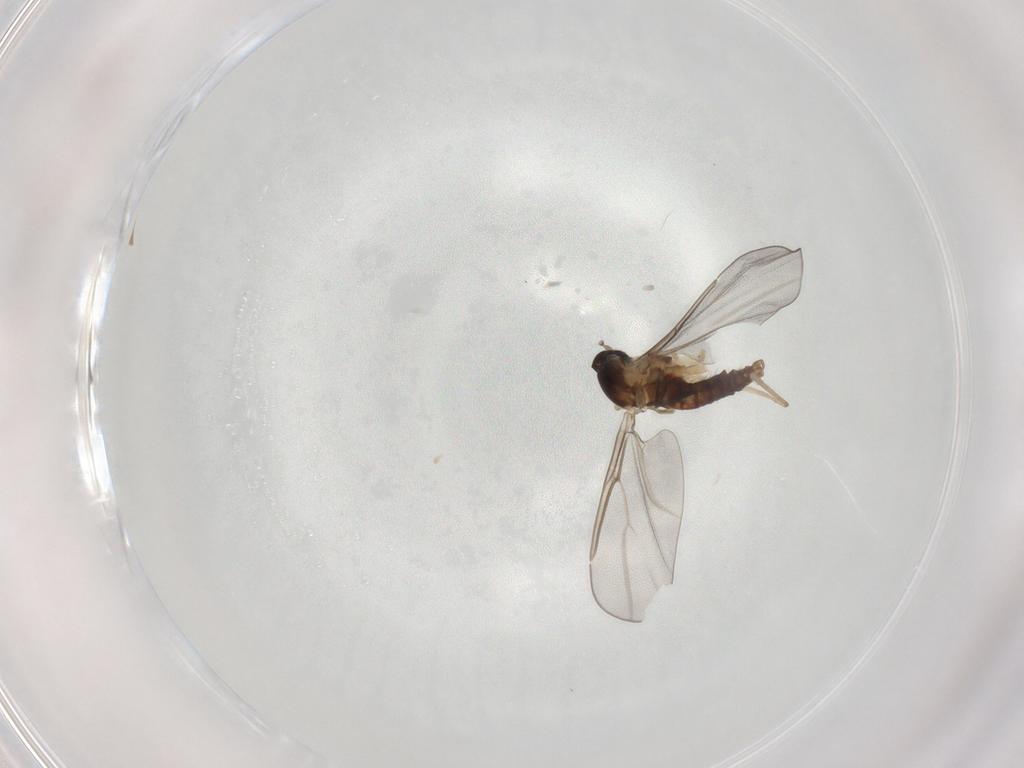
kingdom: Animalia
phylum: Arthropoda
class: Insecta
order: Diptera
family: Cecidomyiidae
